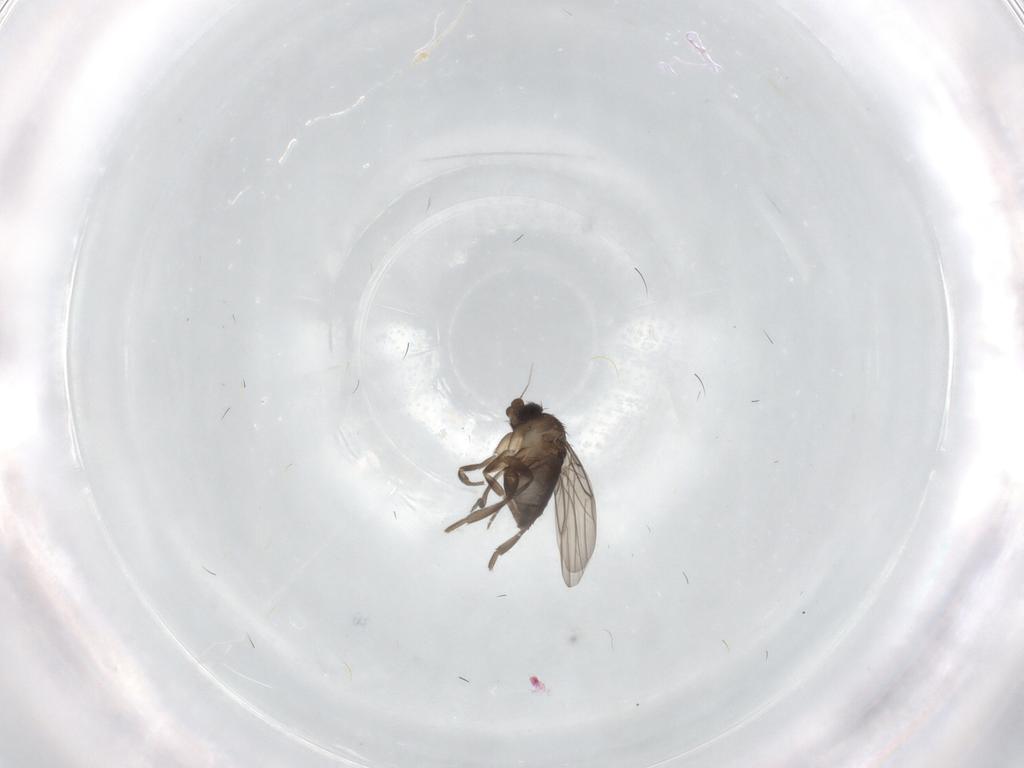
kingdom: Animalia
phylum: Arthropoda
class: Insecta
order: Diptera
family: Phoridae
